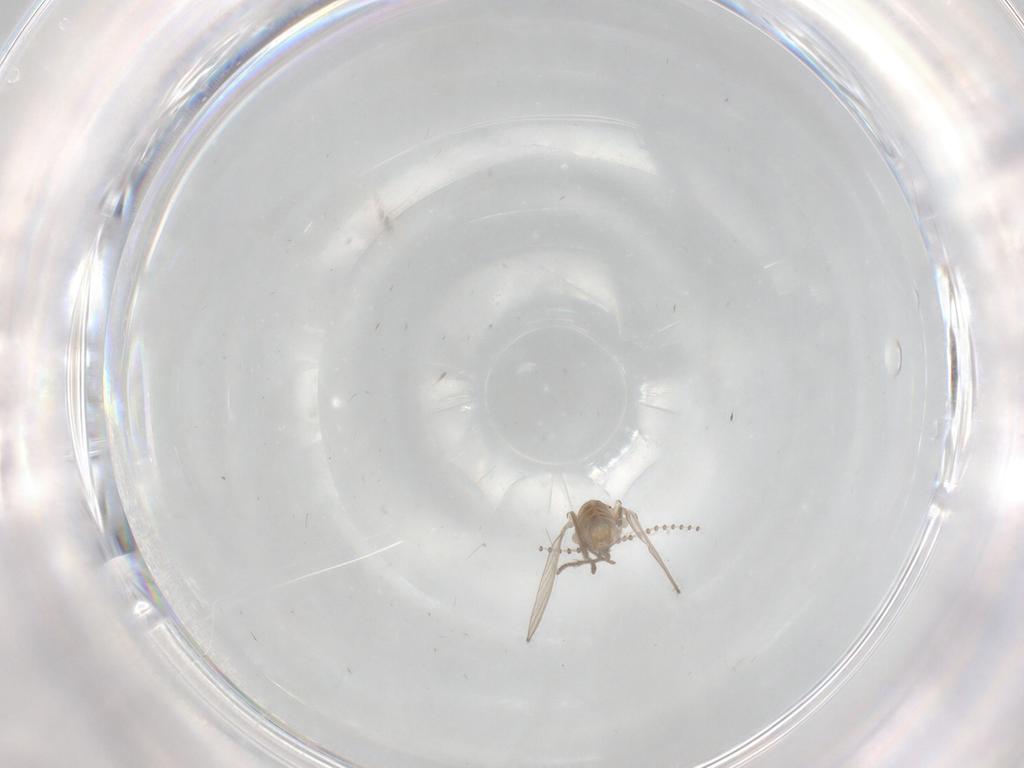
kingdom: Animalia
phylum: Arthropoda
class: Insecta
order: Diptera
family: Psychodidae
